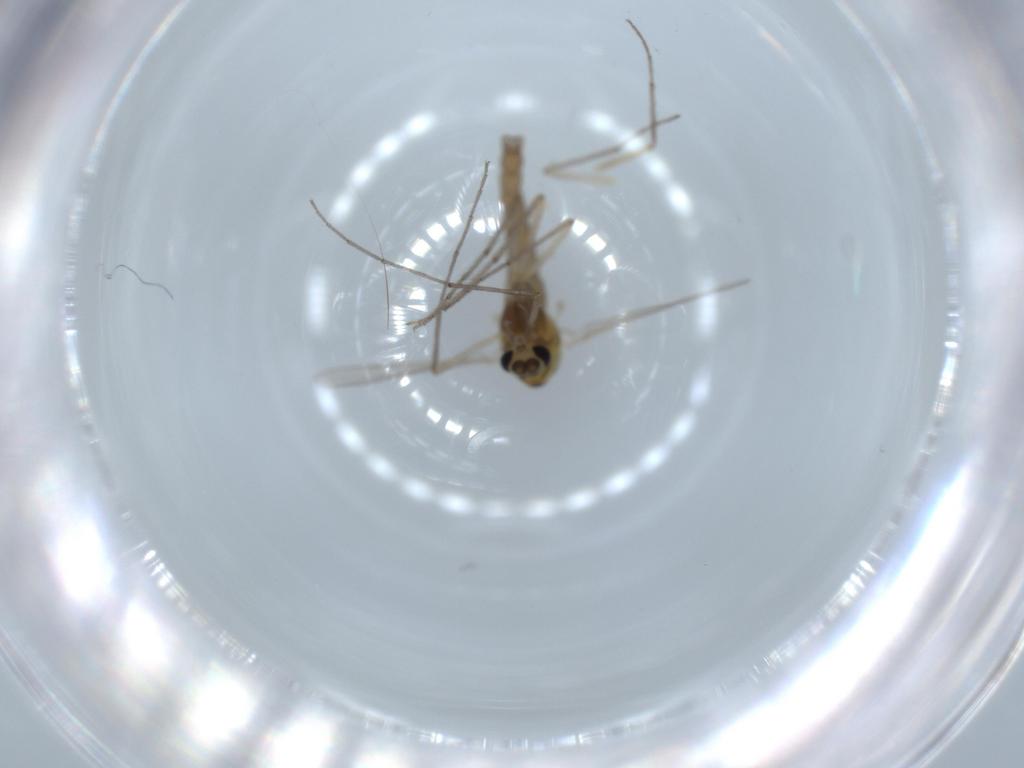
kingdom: Animalia
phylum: Arthropoda
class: Insecta
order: Diptera
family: Chironomidae
